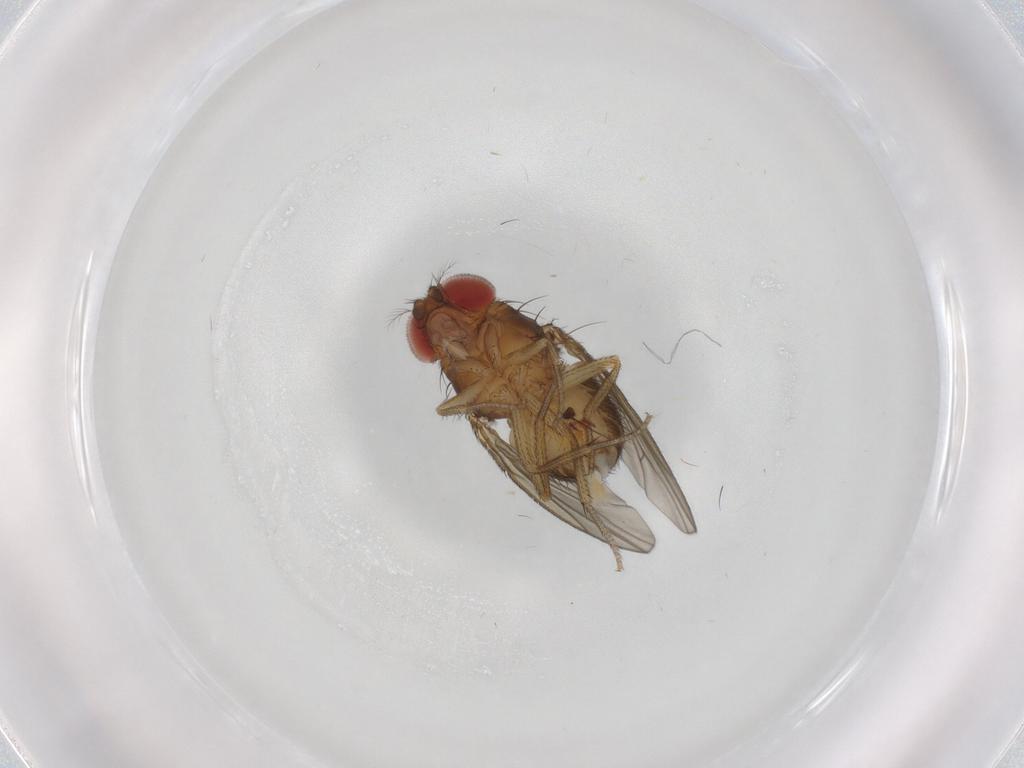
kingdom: Animalia
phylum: Arthropoda
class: Insecta
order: Diptera
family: Drosophilidae
